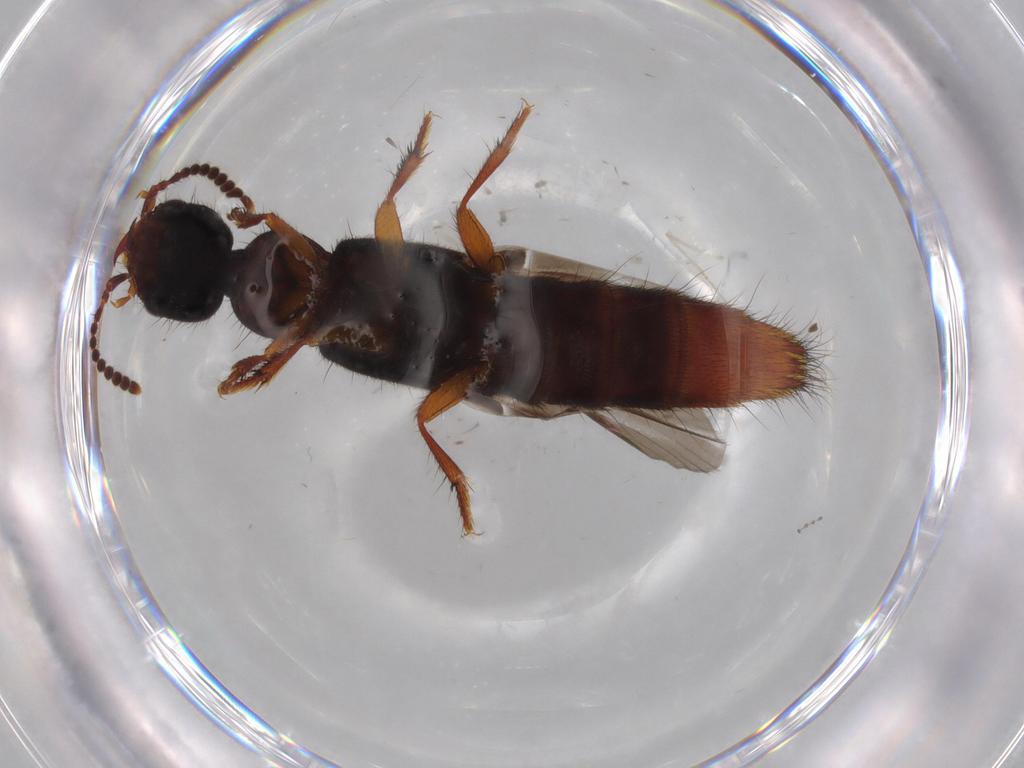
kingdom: Animalia
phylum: Arthropoda
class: Insecta
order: Coleoptera
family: Staphylinidae
